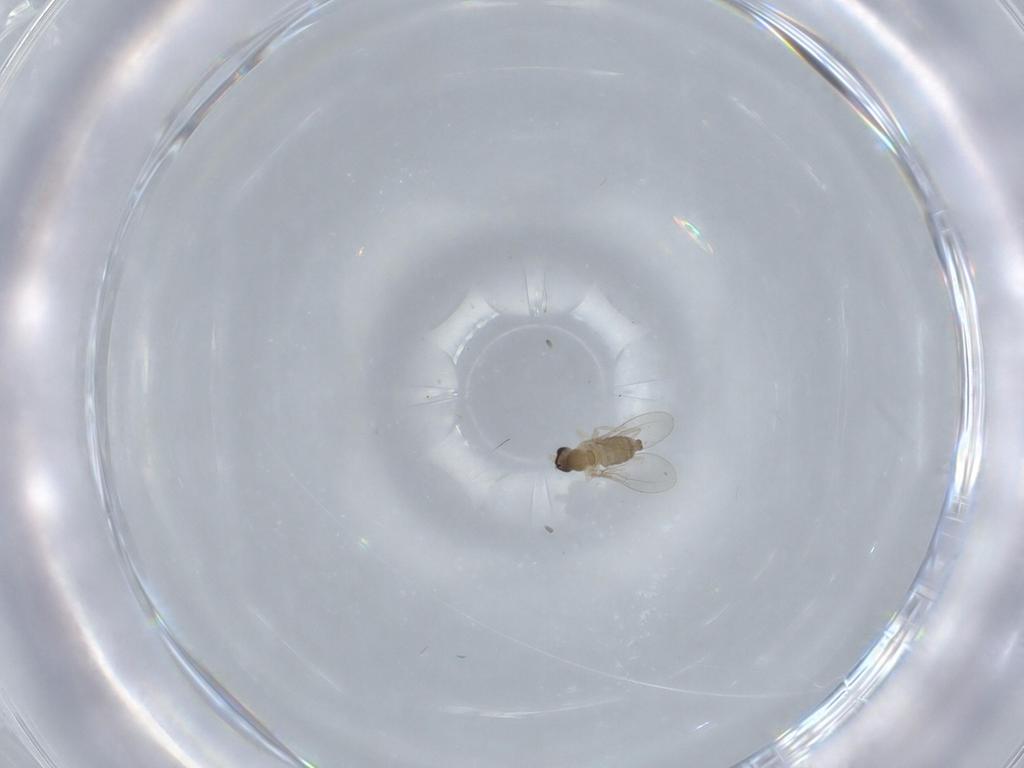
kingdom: Animalia
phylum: Arthropoda
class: Insecta
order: Diptera
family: Cecidomyiidae
